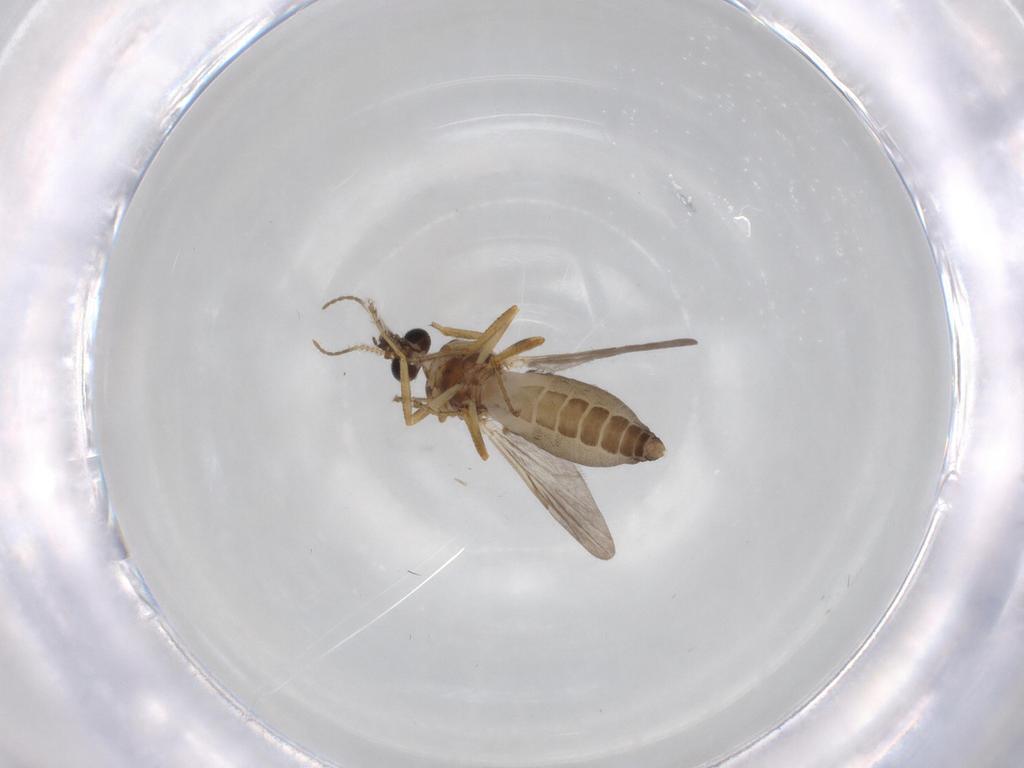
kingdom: Animalia
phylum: Arthropoda
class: Insecta
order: Diptera
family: Ceratopogonidae
